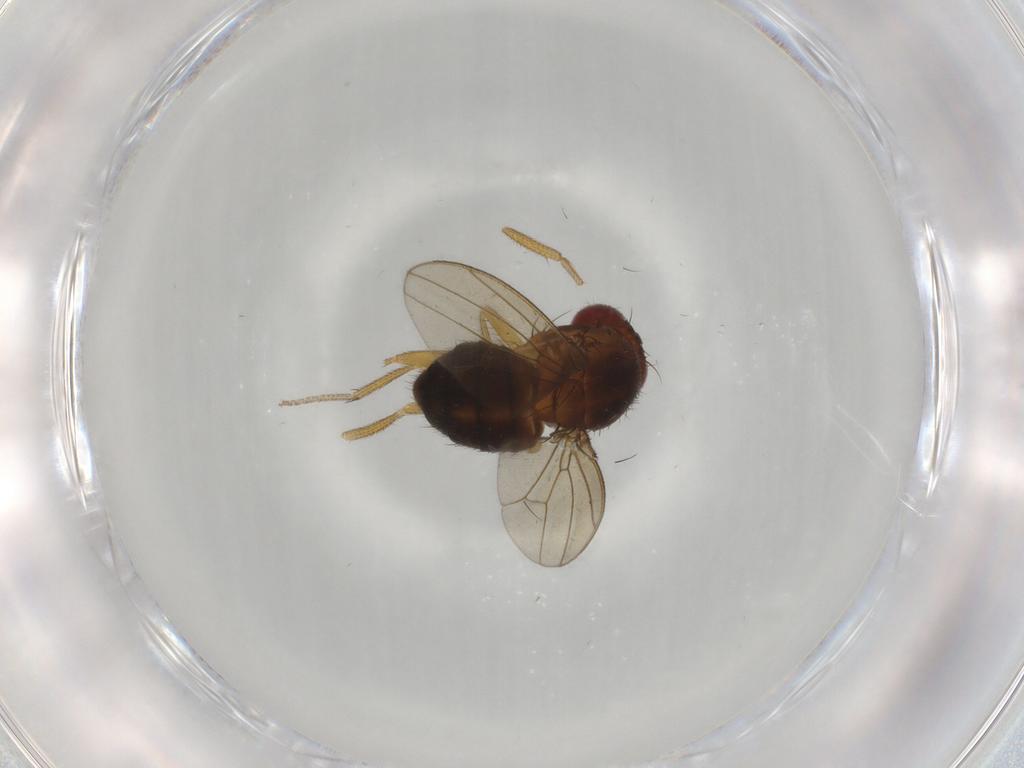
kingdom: Animalia
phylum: Arthropoda
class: Insecta
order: Diptera
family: Drosophilidae
